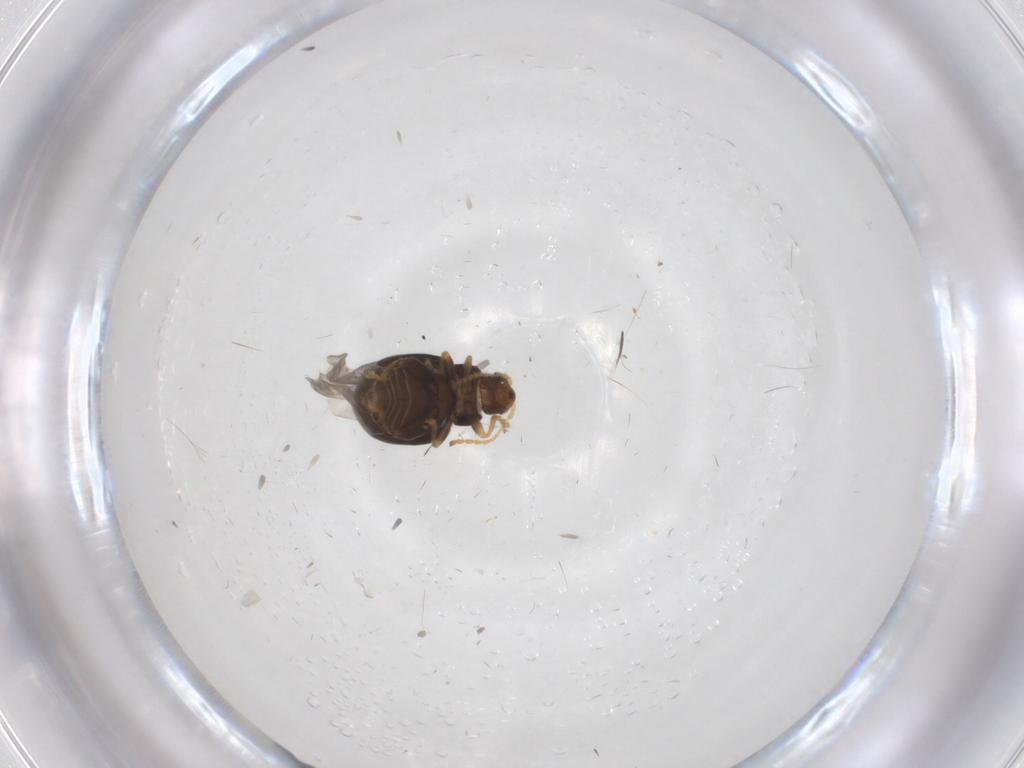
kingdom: Animalia
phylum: Arthropoda
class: Insecta
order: Coleoptera
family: Chrysomelidae
